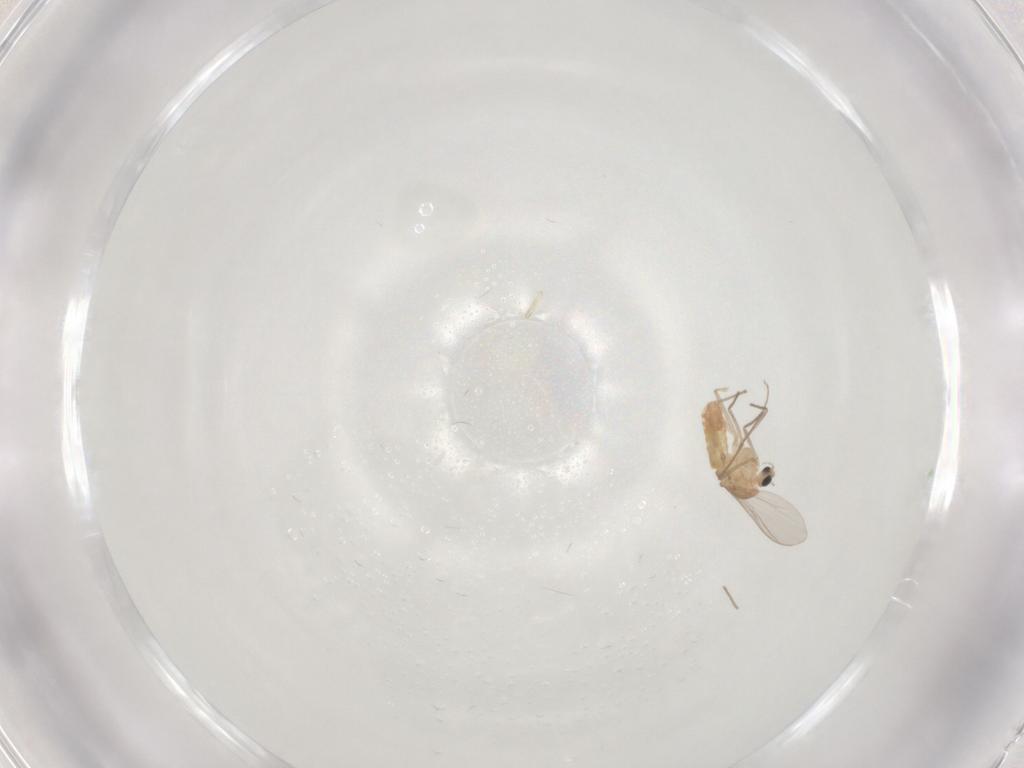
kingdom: Animalia
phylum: Arthropoda
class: Insecta
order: Diptera
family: Chironomidae
